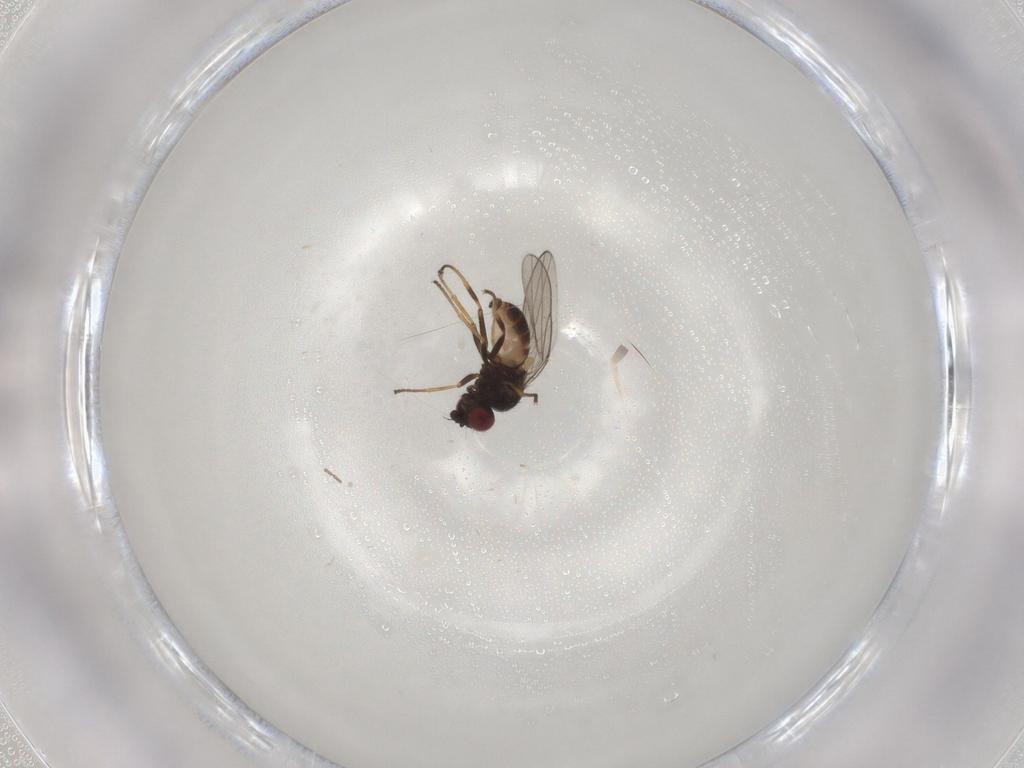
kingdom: Animalia
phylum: Arthropoda
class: Insecta
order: Diptera
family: Chloropidae
